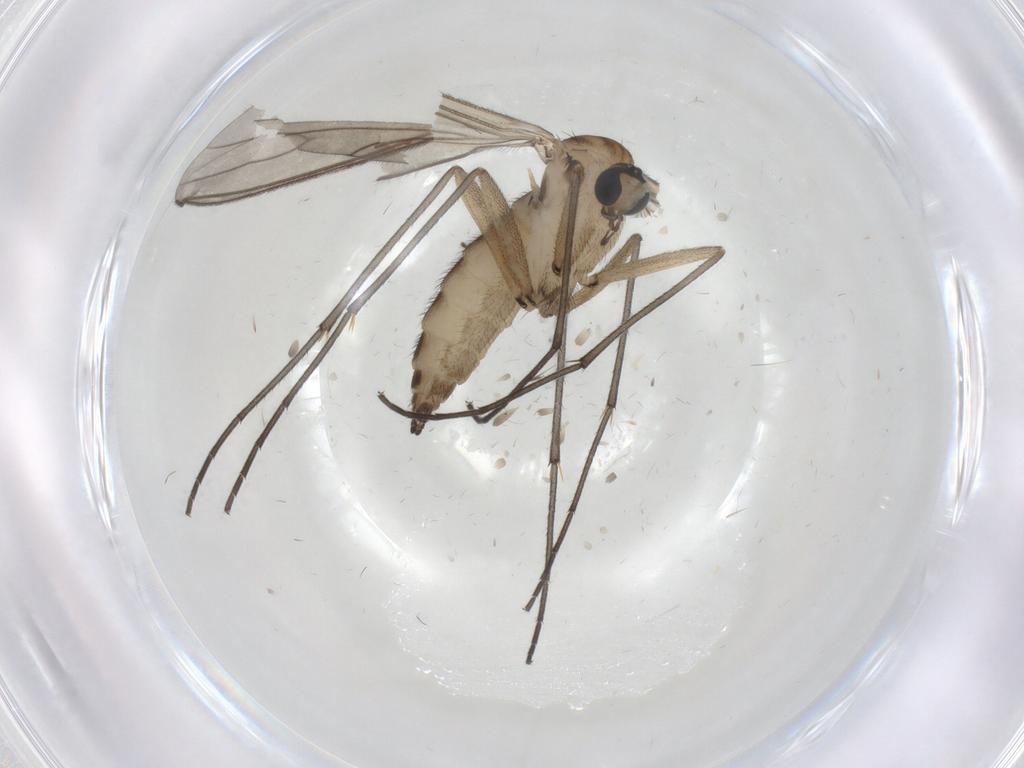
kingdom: Animalia
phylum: Arthropoda
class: Insecta
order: Diptera
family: Sciaridae
